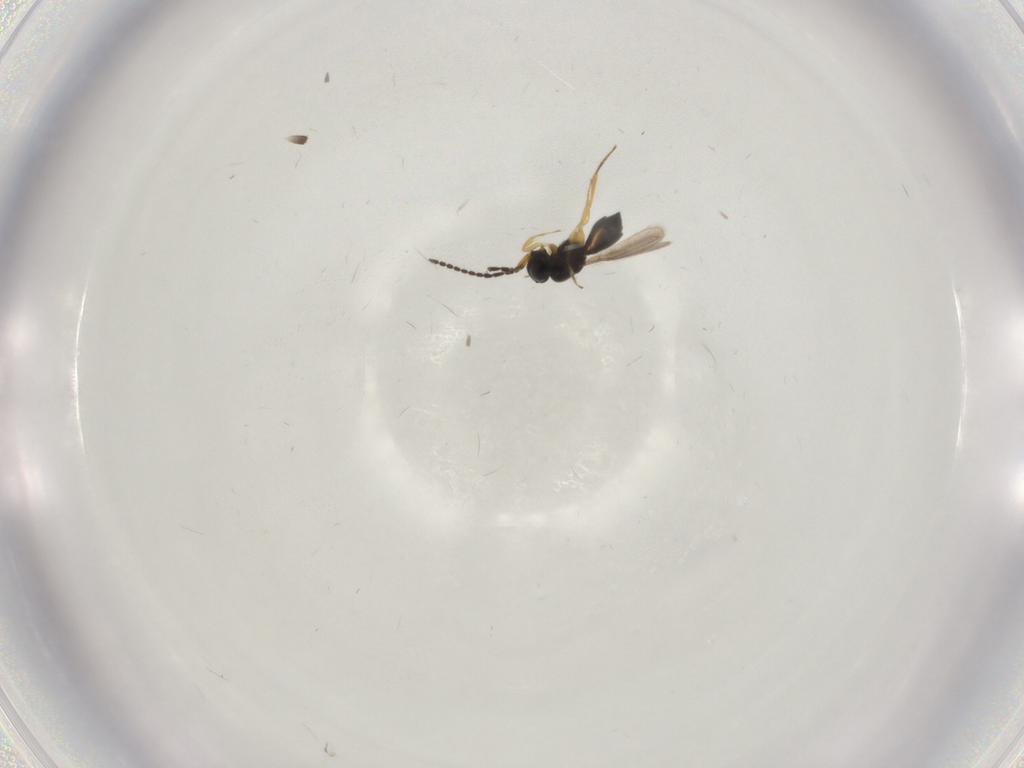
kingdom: Animalia
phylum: Arthropoda
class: Insecta
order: Hymenoptera
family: Scelionidae
